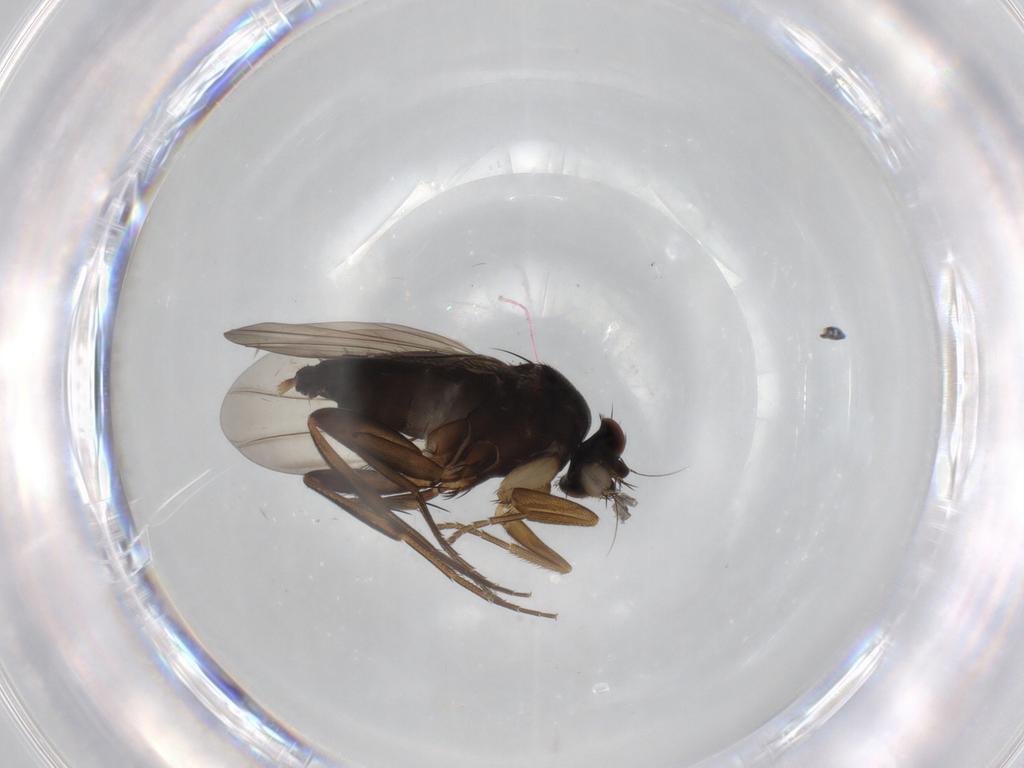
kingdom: Animalia
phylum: Arthropoda
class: Insecta
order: Diptera
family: Phoridae
